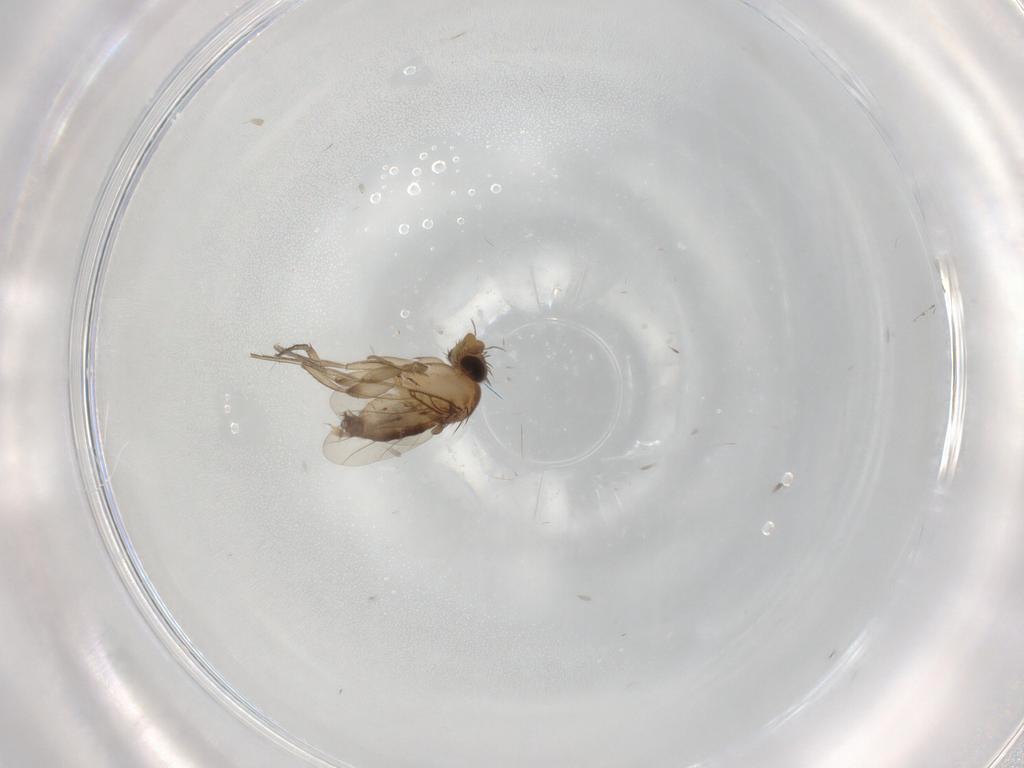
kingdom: Animalia
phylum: Arthropoda
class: Insecta
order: Diptera
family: Phoridae
